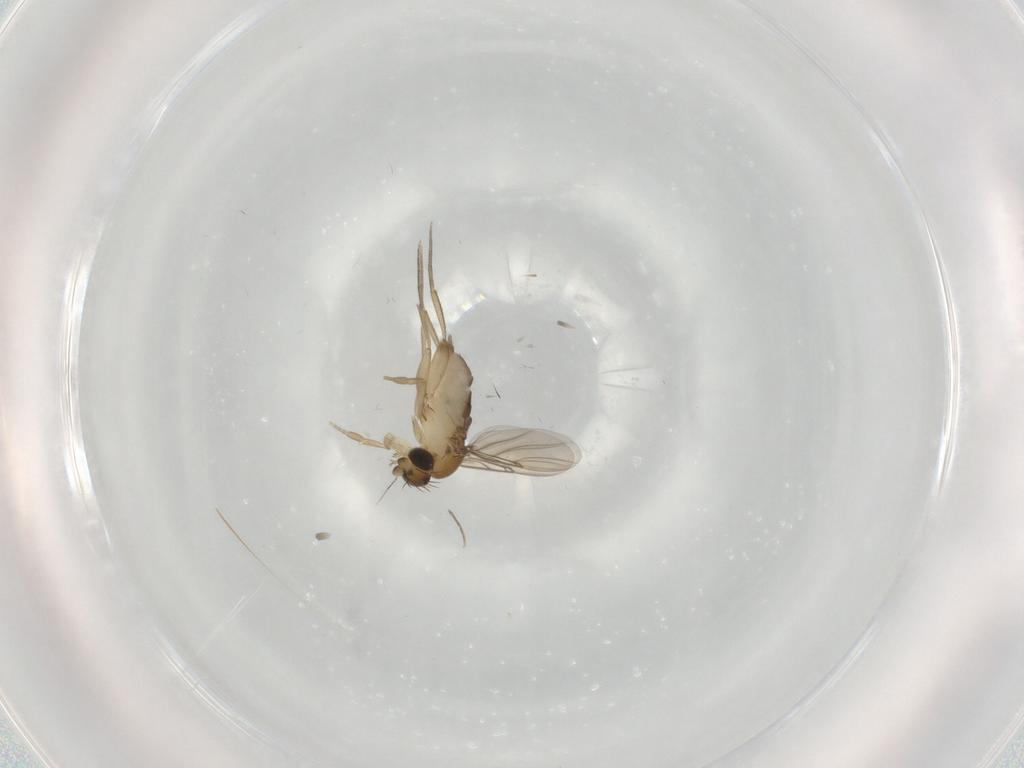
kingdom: Animalia
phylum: Arthropoda
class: Insecta
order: Diptera
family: Phoridae
